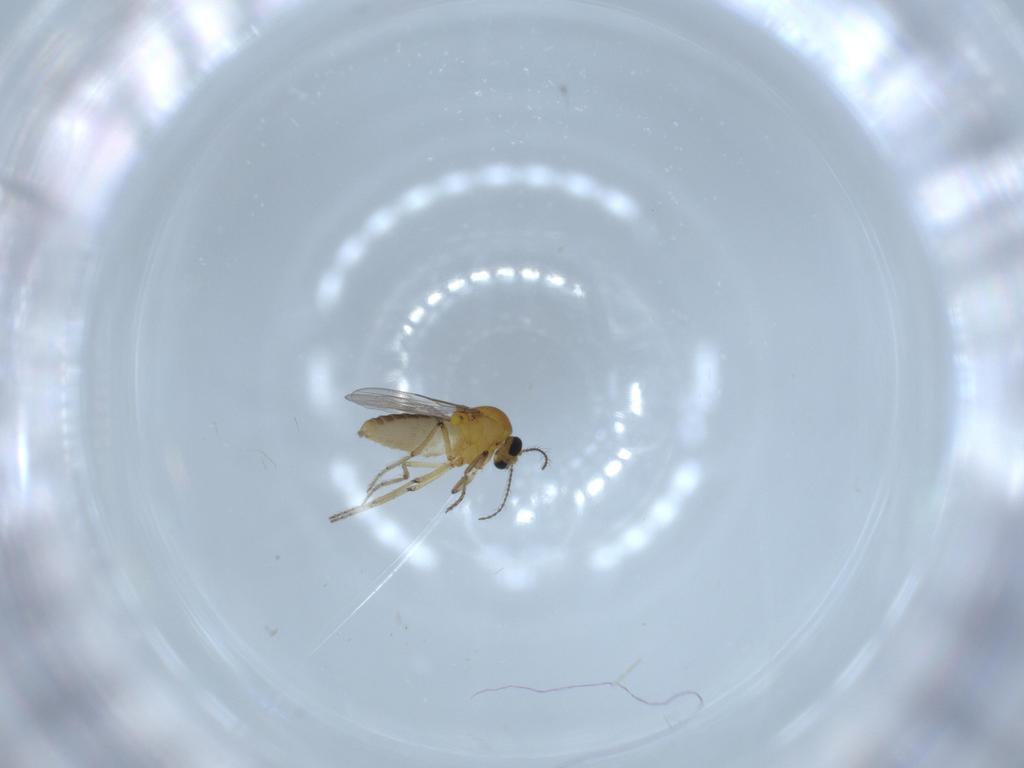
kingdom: Animalia
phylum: Arthropoda
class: Insecta
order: Diptera
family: Ceratopogonidae
